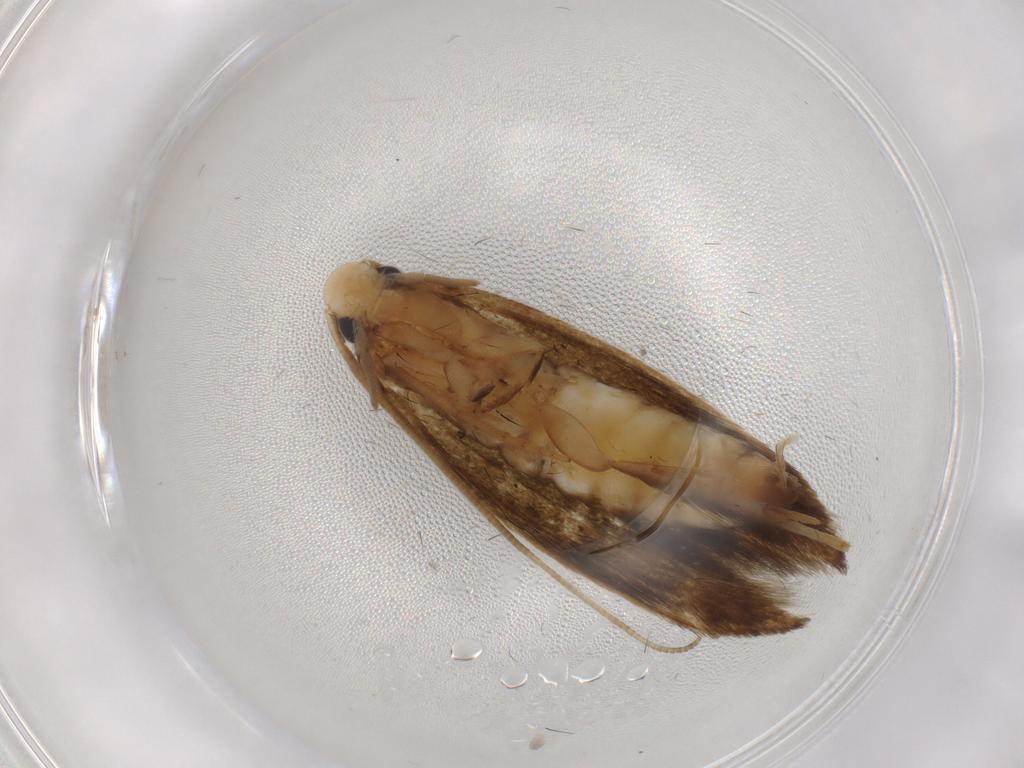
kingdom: Animalia
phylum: Arthropoda
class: Insecta
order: Lepidoptera
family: Tineidae
